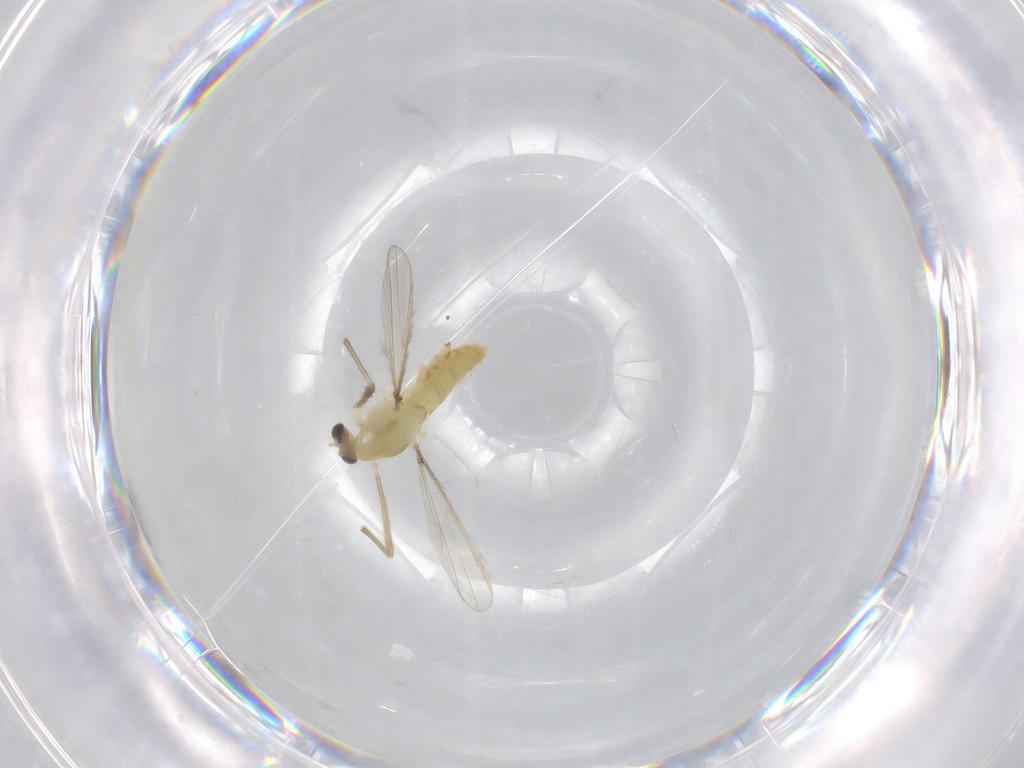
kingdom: Animalia
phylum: Arthropoda
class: Insecta
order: Diptera
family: Chironomidae
